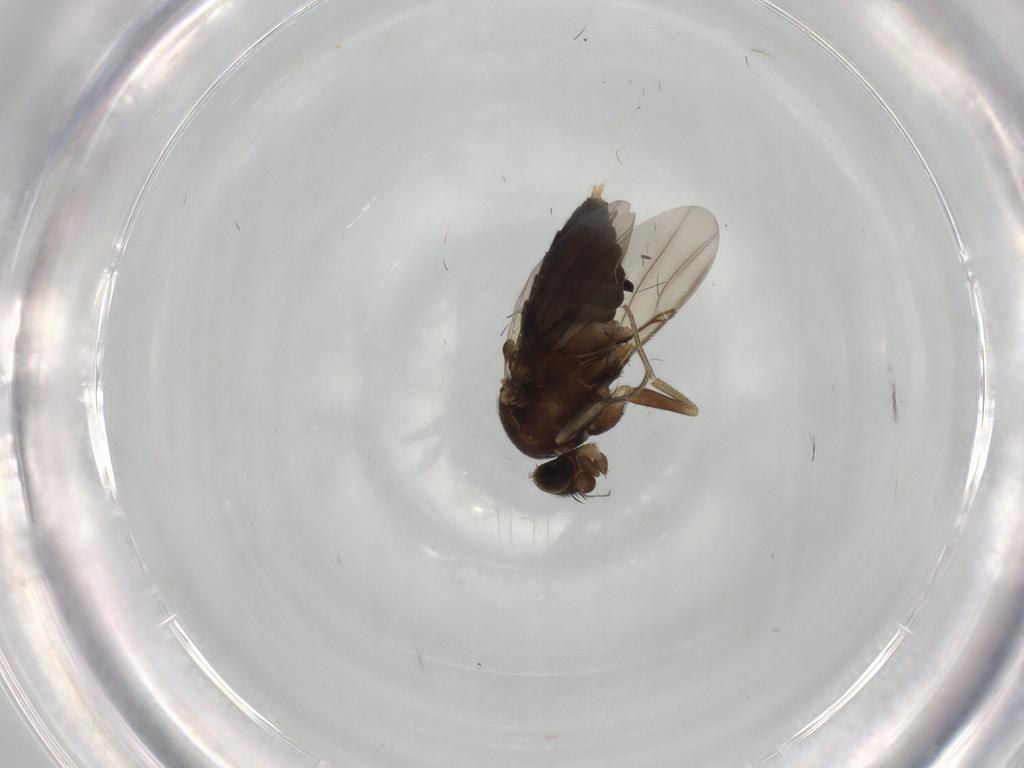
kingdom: Animalia
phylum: Arthropoda
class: Insecta
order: Diptera
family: Phoridae
